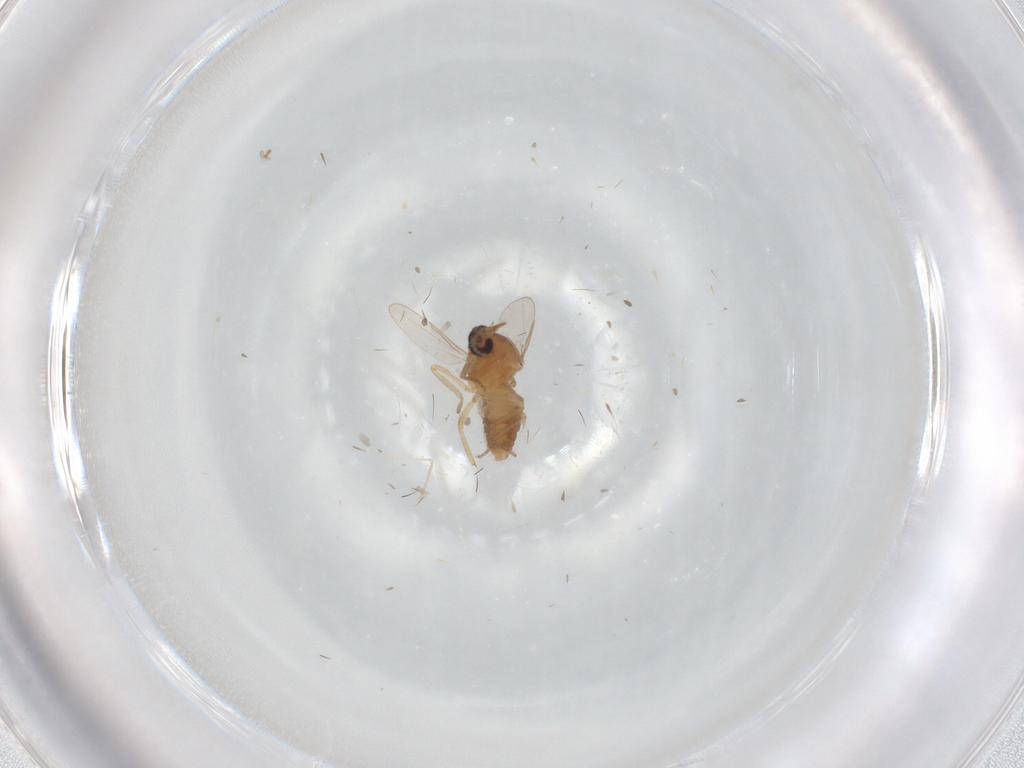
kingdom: Animalia
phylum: Arthropoda
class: Insecta
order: Diptera
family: Ceratopogonidae
